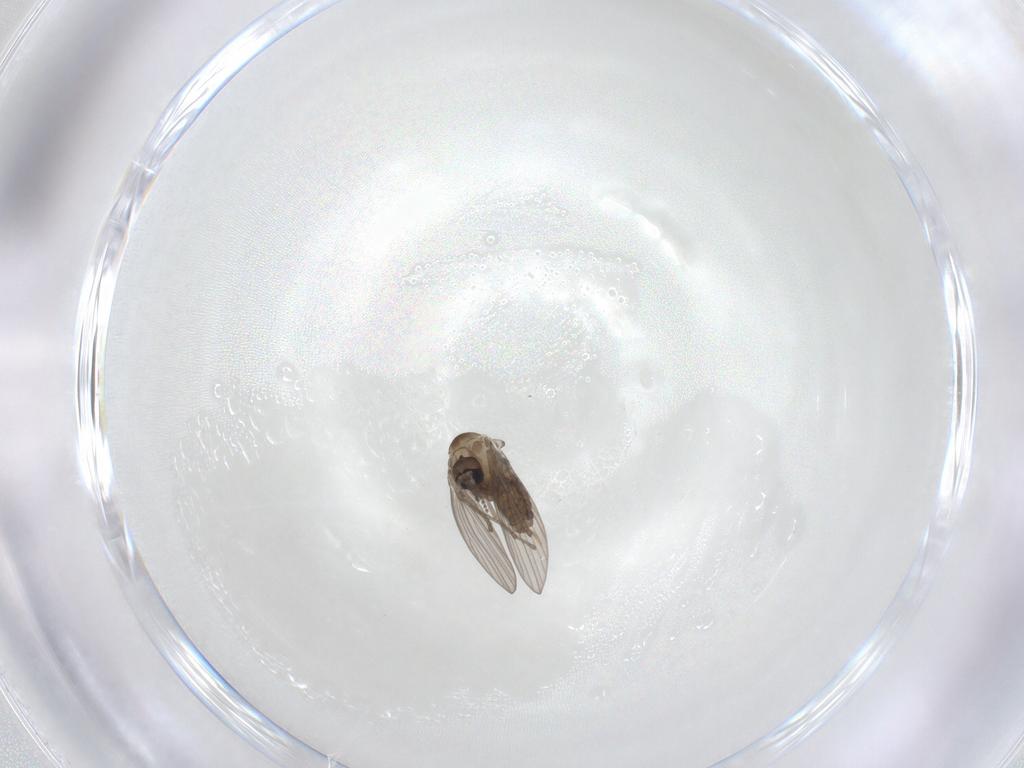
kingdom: Animalia
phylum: Arthropoda
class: Insecta
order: Diptera
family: Psychodidae
